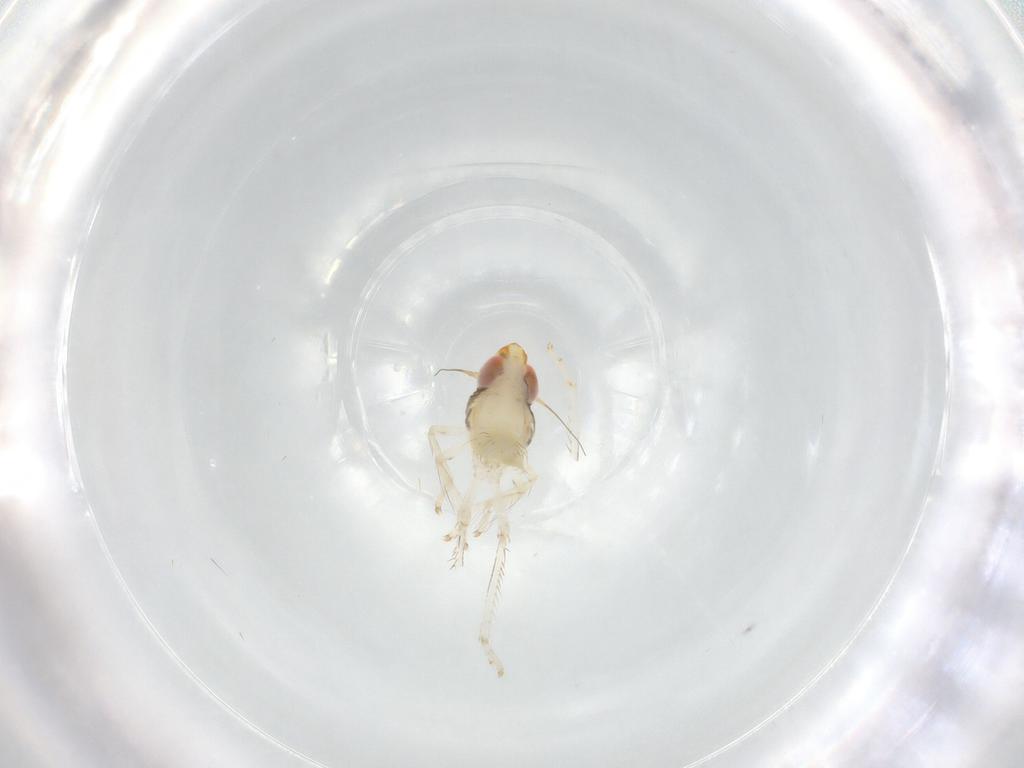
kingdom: Animalia
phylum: Arthropoda
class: Insecta
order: Hemiptera
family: Cicadellidae
